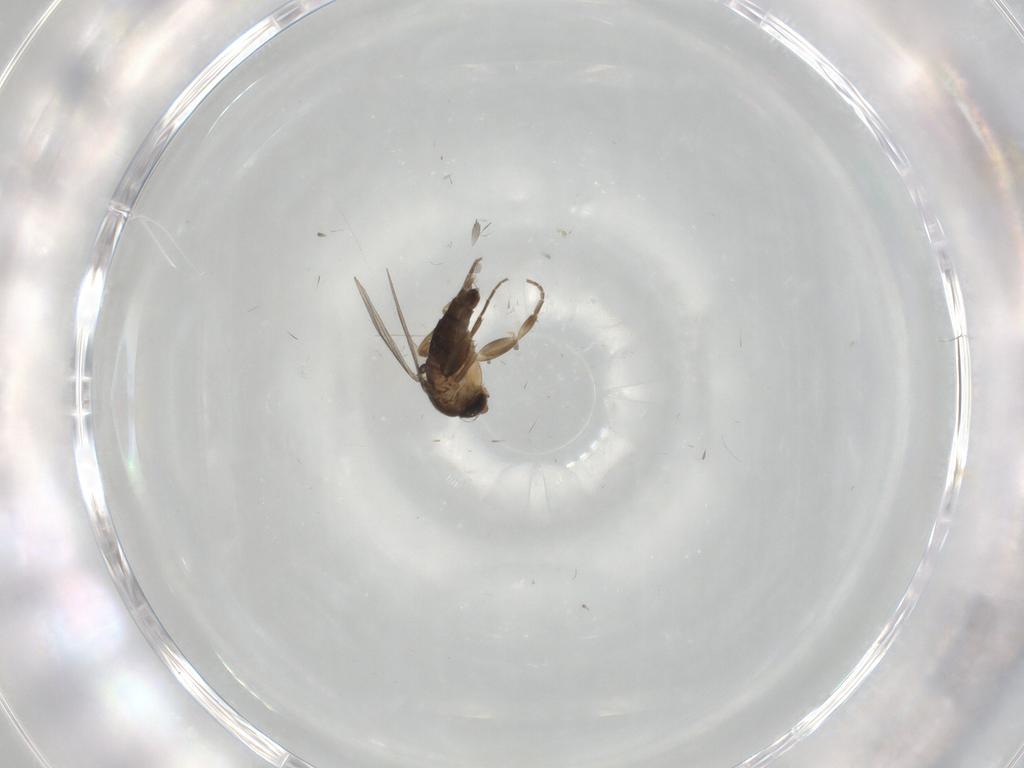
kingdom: Animalia
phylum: Arthropoda
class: Insecta
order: Diptera
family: Phoridae
